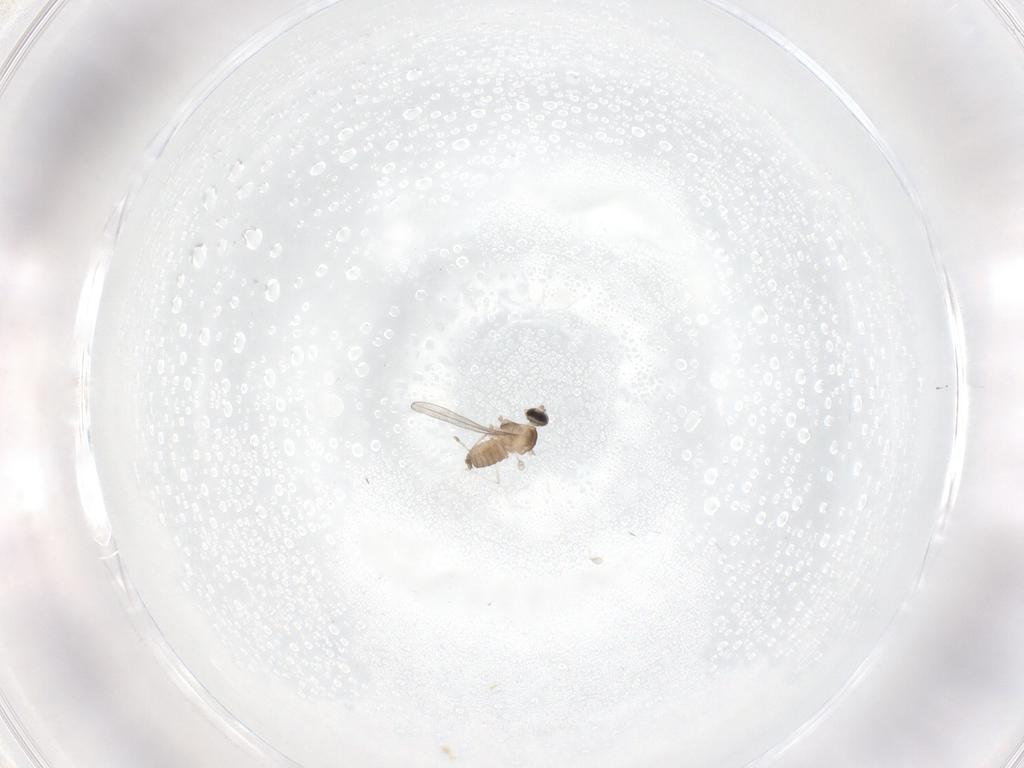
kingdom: Animalia
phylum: Arthropoda
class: Insecta
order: Diptera
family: Cecidomyiidae
